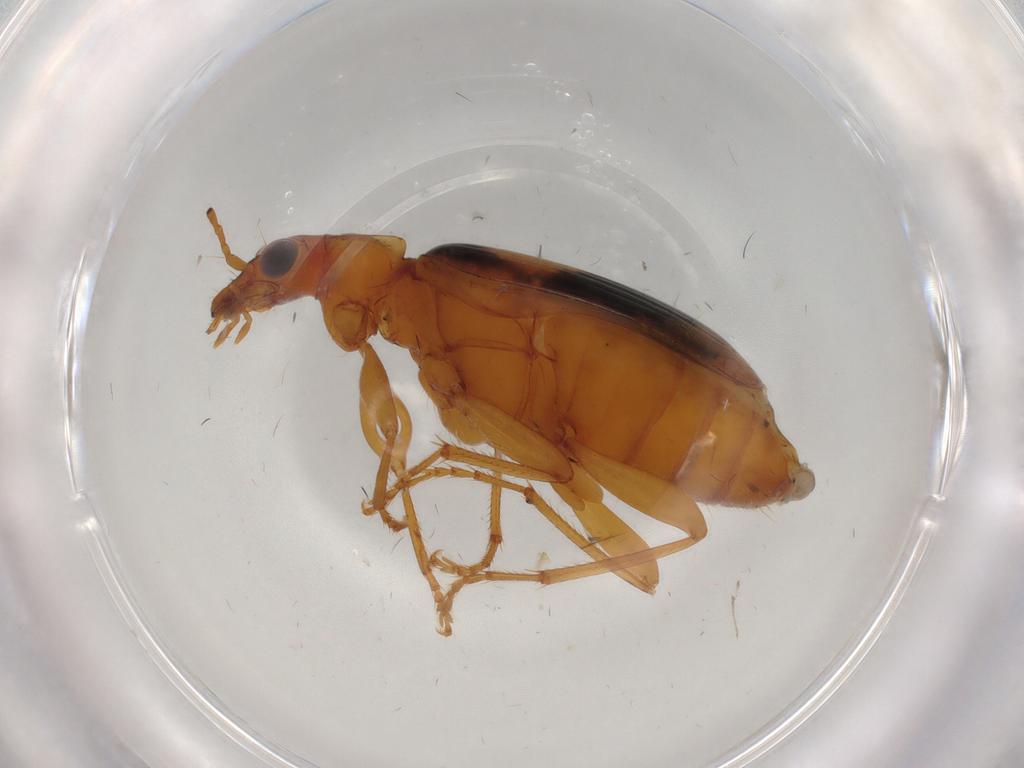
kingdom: Animalia
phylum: Arthropoda
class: Insecta
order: Coleoptera
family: Carabidae
